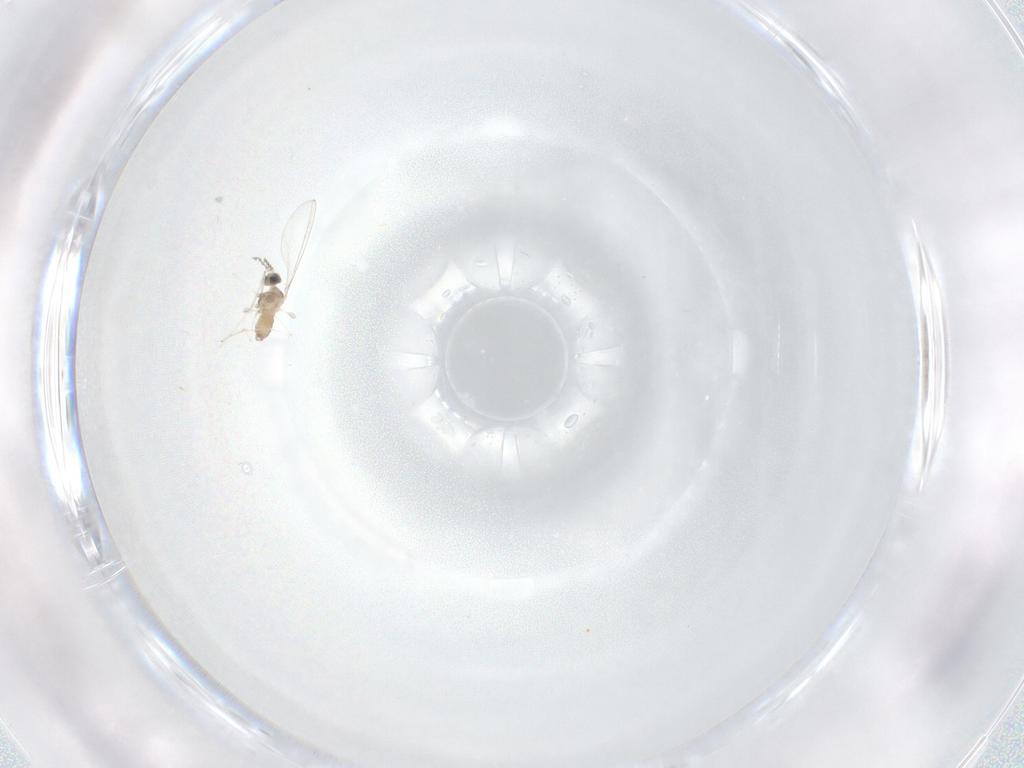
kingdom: Animalia
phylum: Arthropoda
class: Insecta
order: Diptera
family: Cecidomyiidae
